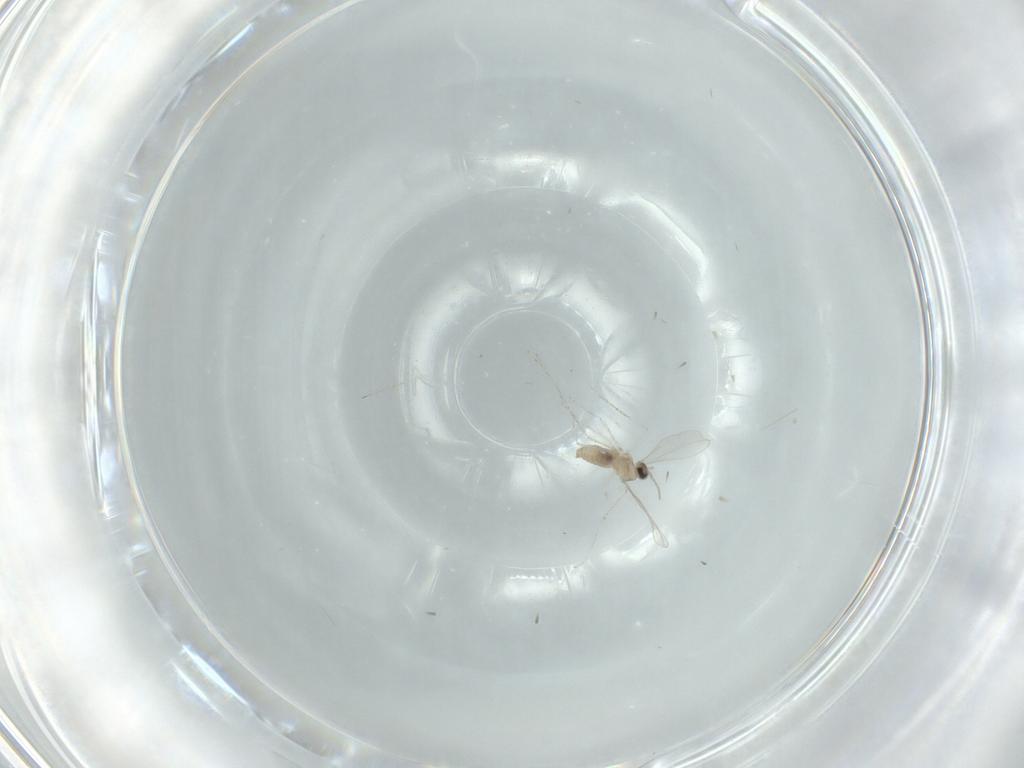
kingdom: Animalia
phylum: Arthropoda
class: Insecta
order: Diptera
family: Cecidomyiidae
